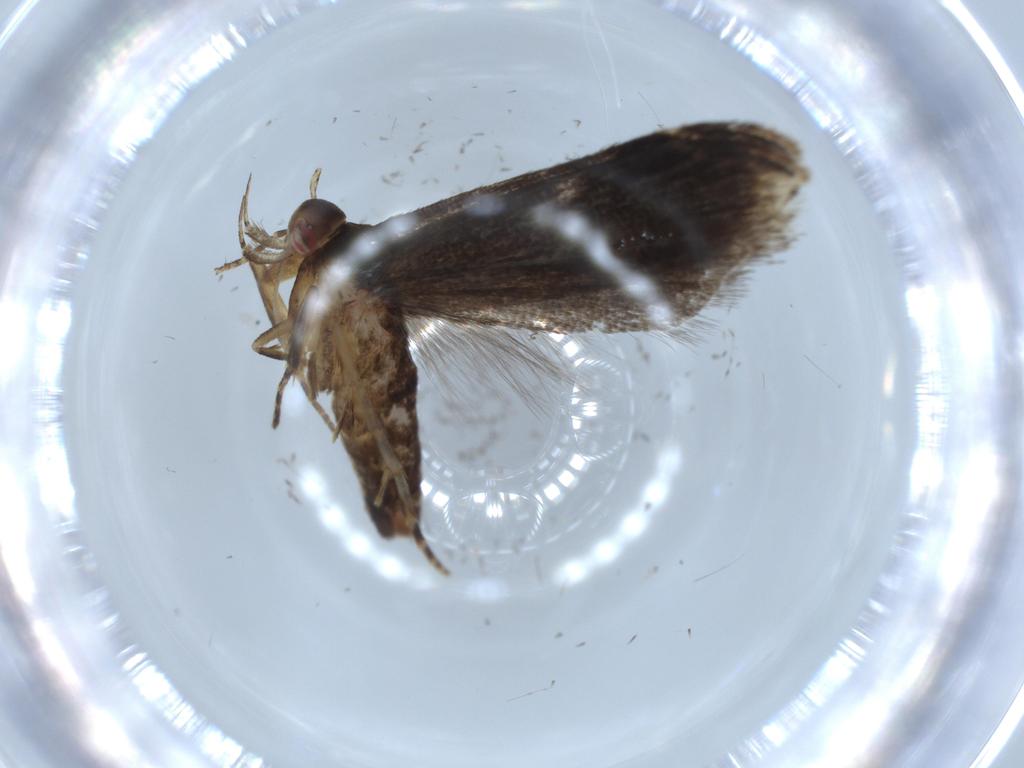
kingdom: Animalia
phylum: Arthropoda
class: Insecta
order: Lepidoptera
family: Gelechiidae
